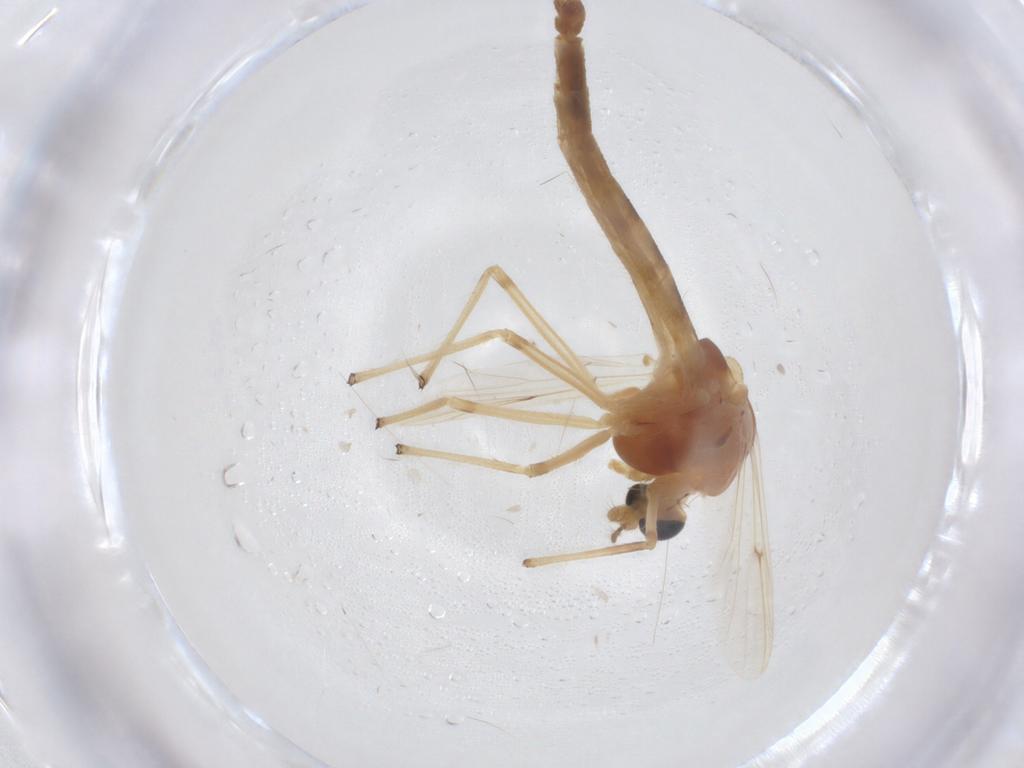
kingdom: Animalia
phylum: Arthropoda
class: Insecta
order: Diptera
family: Chironomidae
